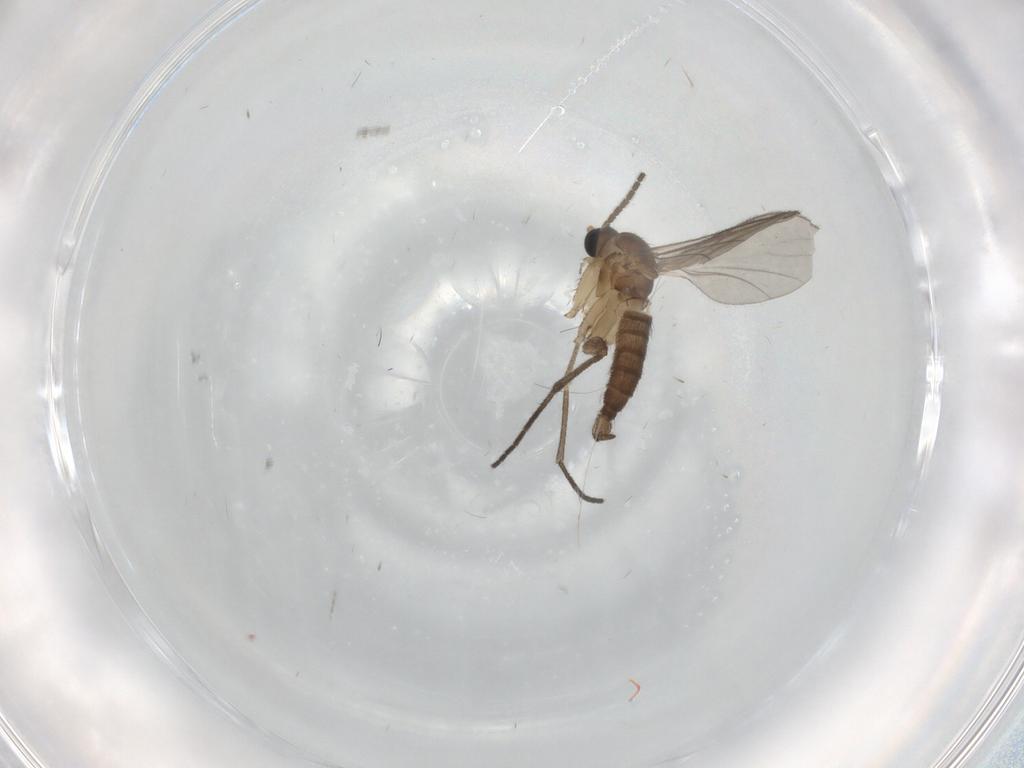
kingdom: Animalia
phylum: Arthropoda
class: Insecta
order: Diptera
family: Sciaridae
